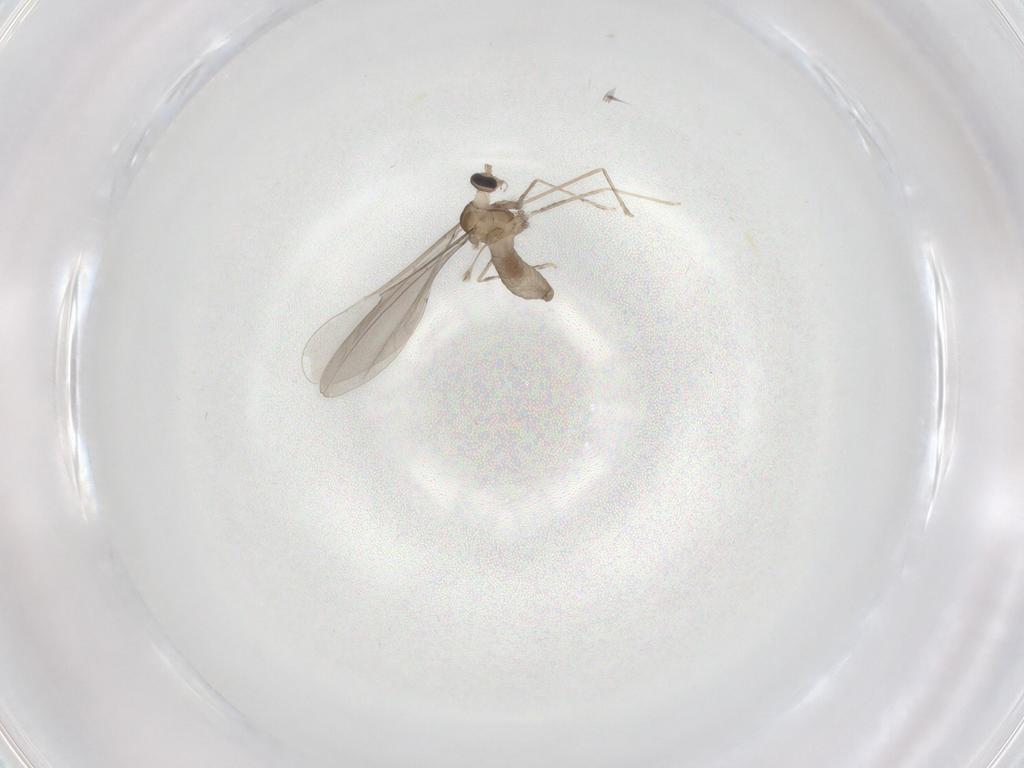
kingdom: Animalia
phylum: Arthropoda
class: Insecta
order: Diptera
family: Cecidomyiidae
